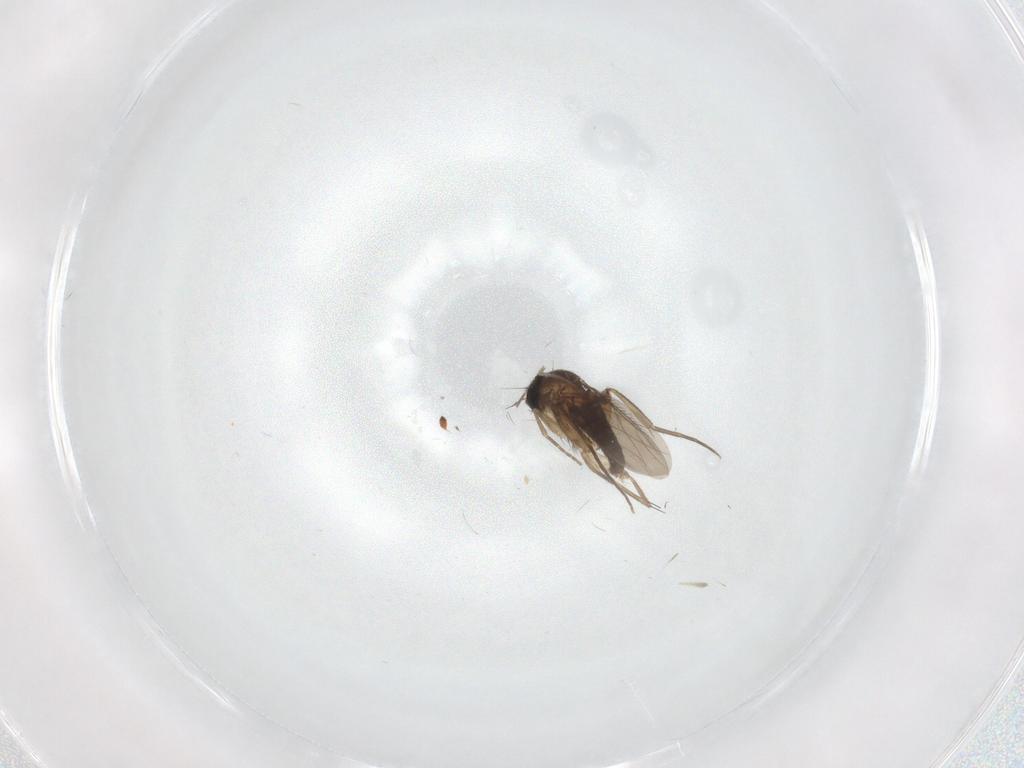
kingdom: Animalia
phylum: Arthropoda
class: Insecta
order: Diptera
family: Phoridae
